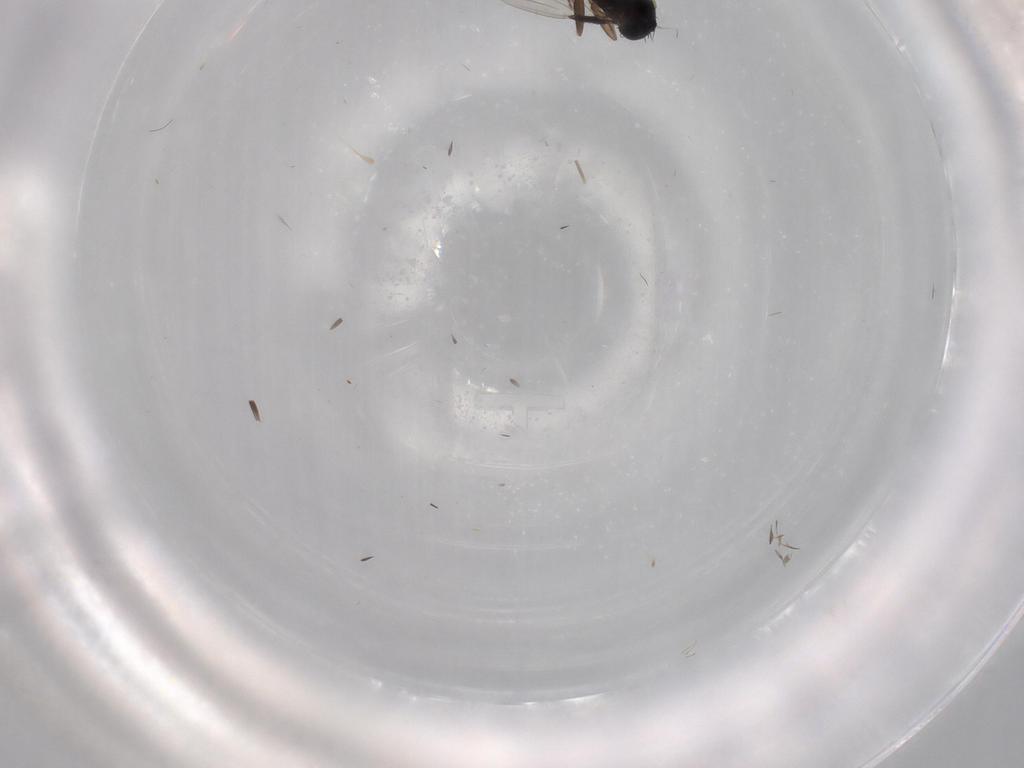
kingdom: Animalia
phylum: Arthropoda
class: Insecta
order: Diptera
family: Phoridae
